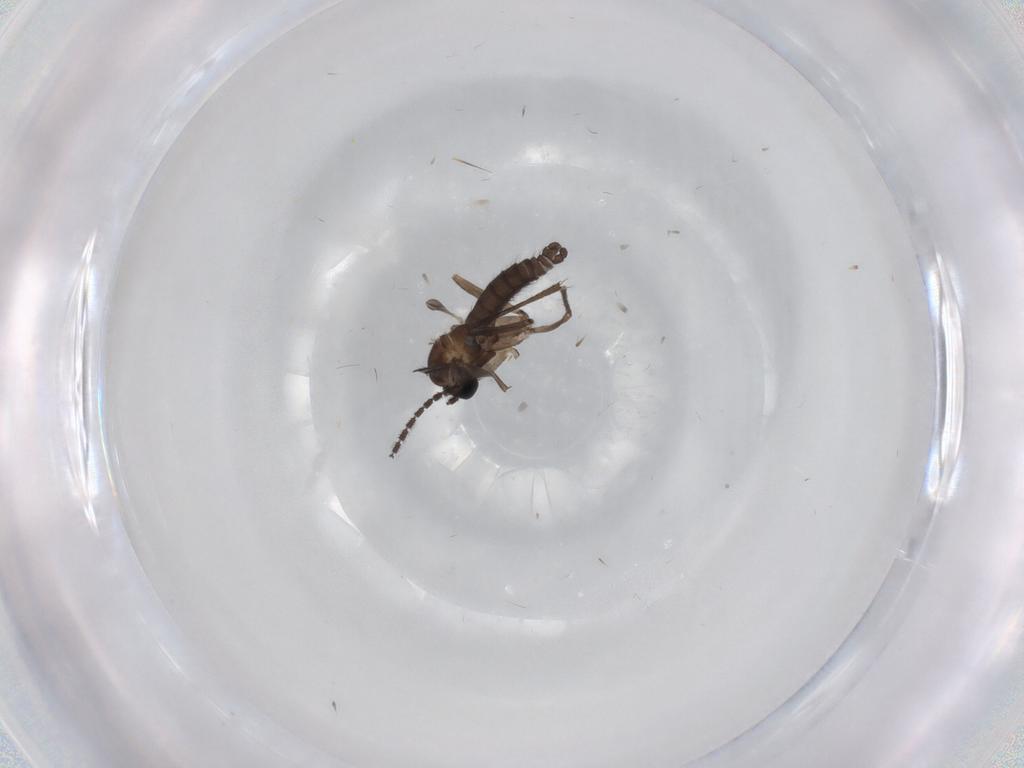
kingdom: Animalia
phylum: Arthropoda
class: Insecta
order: Diptera
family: Sciaridae
